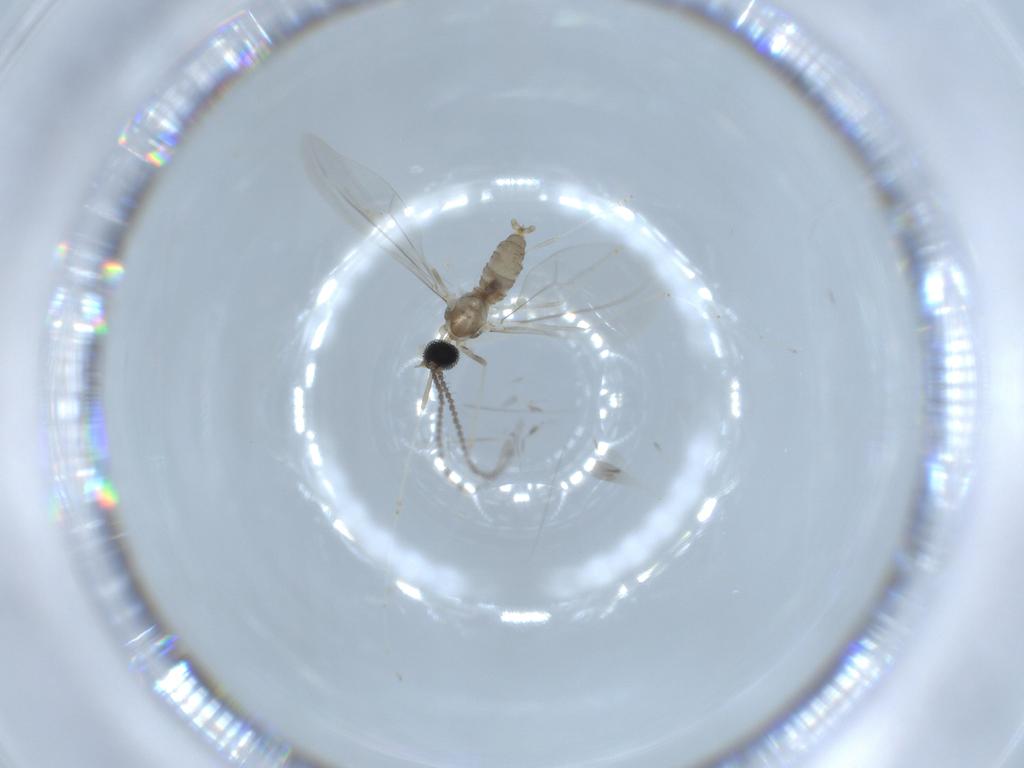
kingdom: Animalia
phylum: Arthropoda
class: Insecta
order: Diptera
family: Cecidomyiidae
